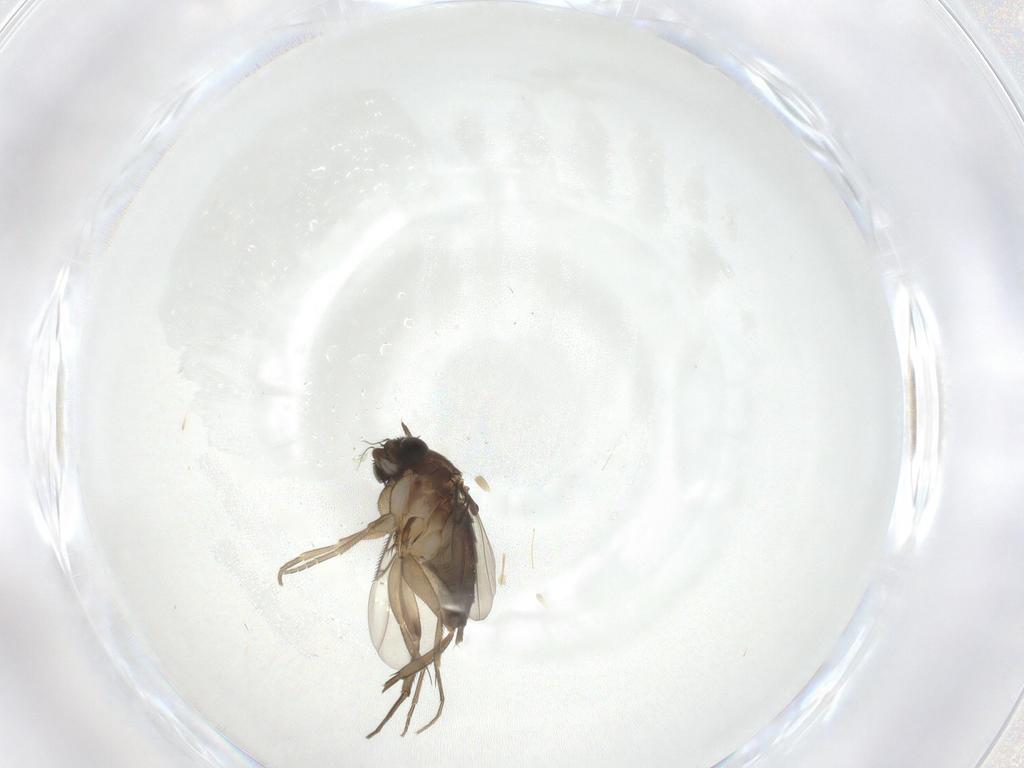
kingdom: Animalia
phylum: Arthropoda
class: Insecta
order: Diptera
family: Phoridae
